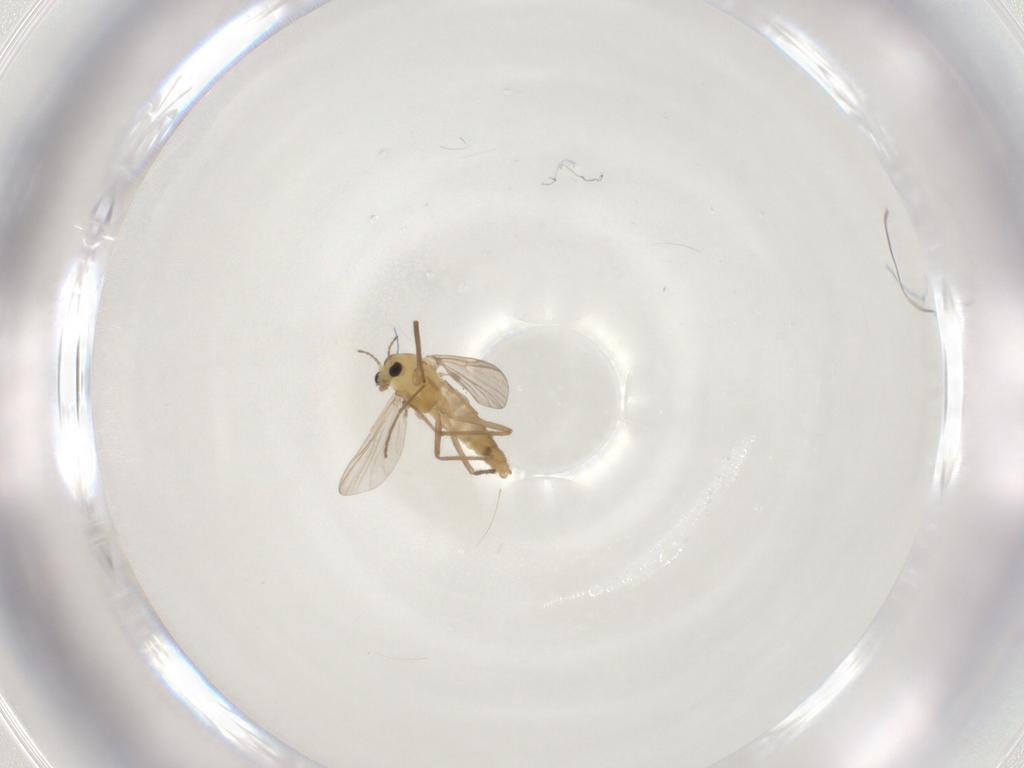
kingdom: Animalia
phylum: Arthropoda
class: Insecta
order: Diptera
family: Chironomidae
